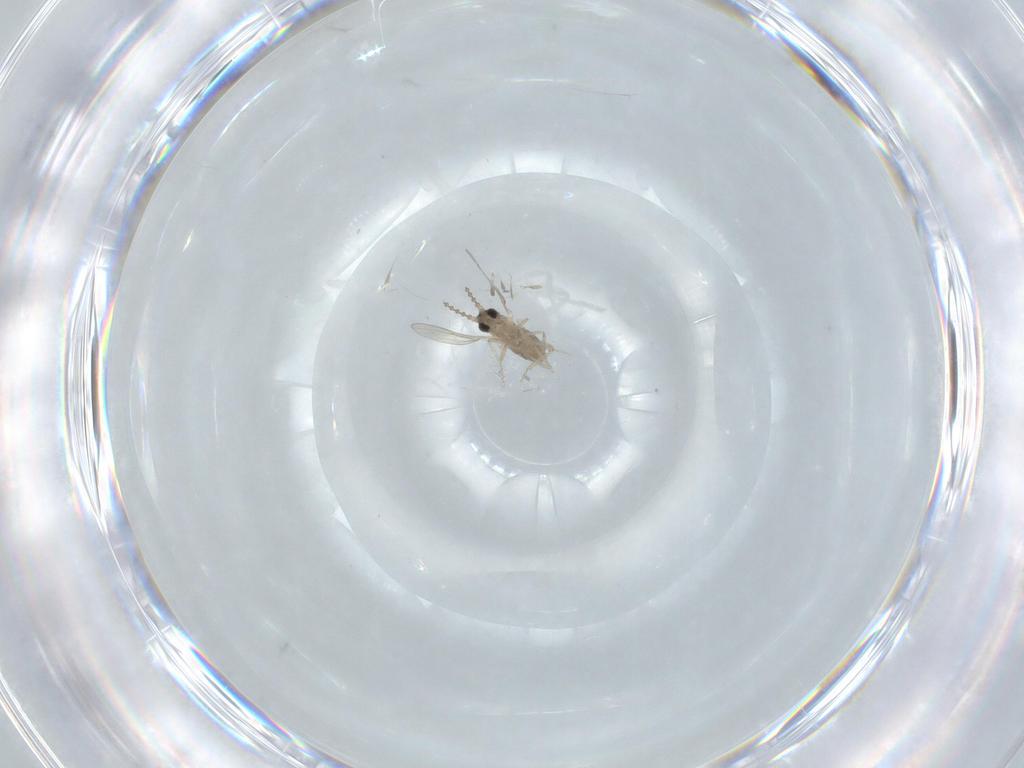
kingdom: Animalia
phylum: Arthropoda
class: Insecta
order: Diptera
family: Cecidomyiidae
